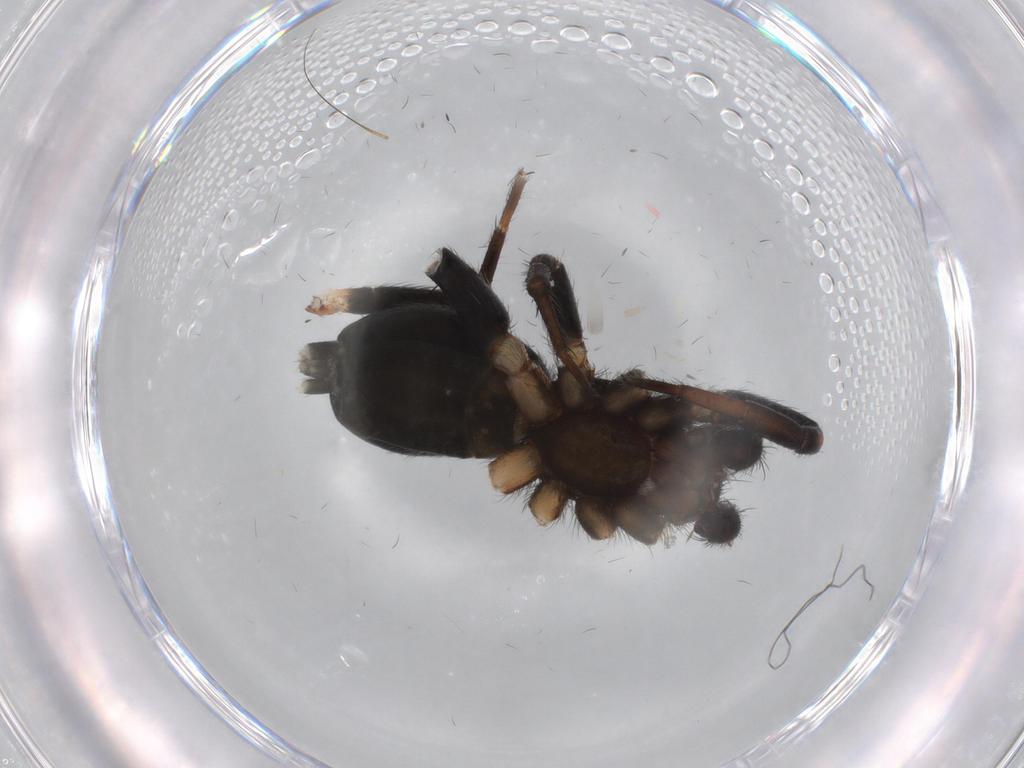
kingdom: Animalia
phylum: Arthropoda
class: Arachnida
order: Araneae
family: Gnaphosidae
